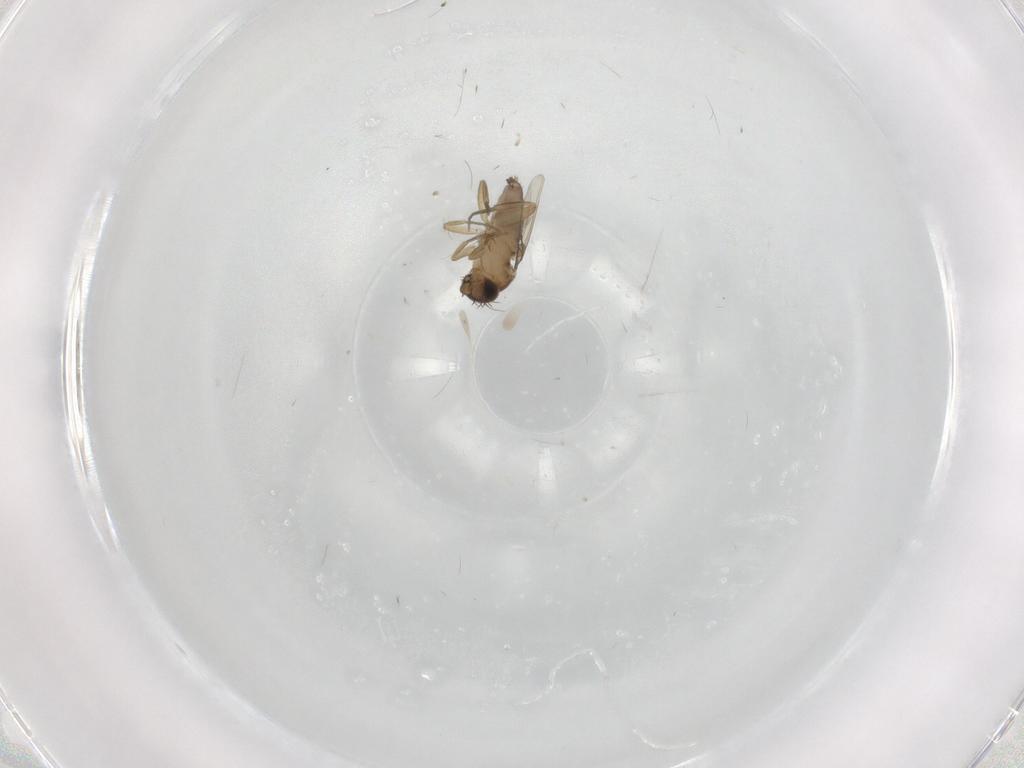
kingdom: Animalia
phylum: Arthropoda
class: Insecta
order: Diptera
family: Phoridae
